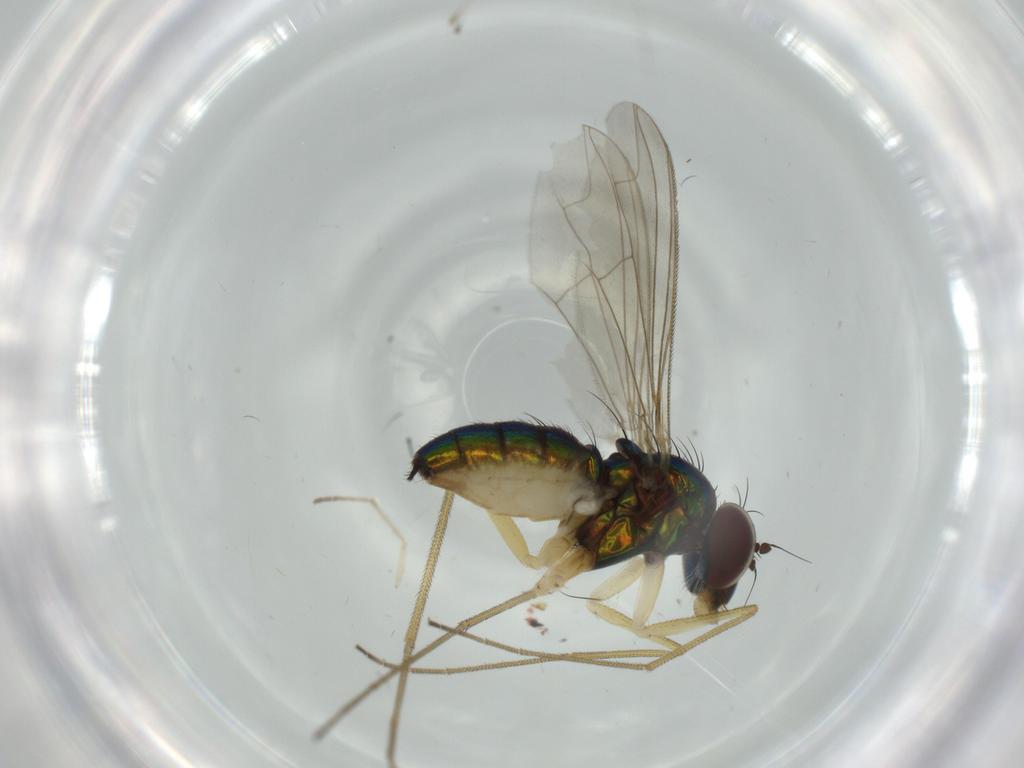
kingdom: Animalia
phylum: Arthropoda
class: Insecta
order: Diptera
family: Dolichopodidae
